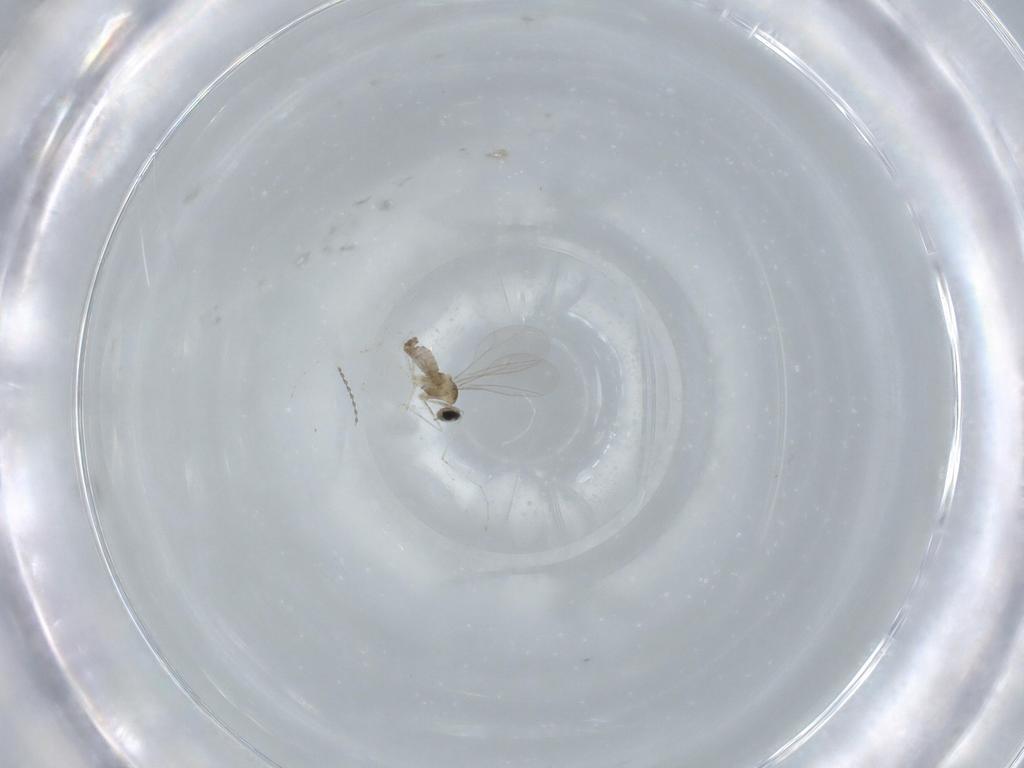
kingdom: Animalia
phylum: Arthropoda
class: Insecta
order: Diptera
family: Cecidomyiidae
